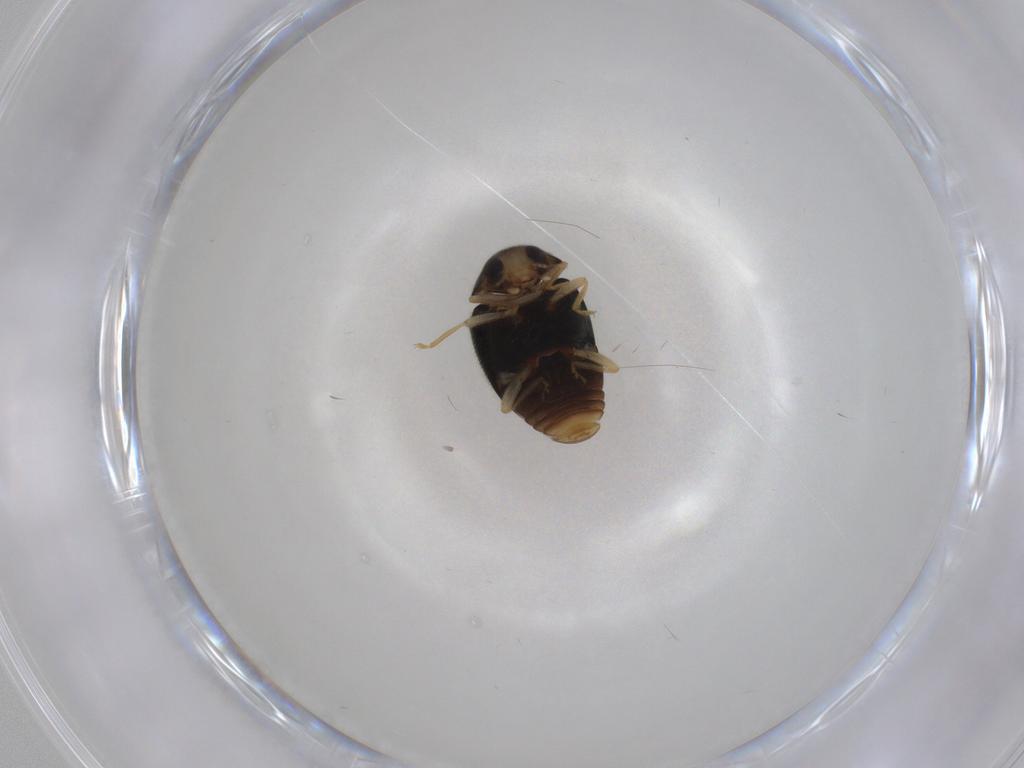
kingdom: Animalia
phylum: Arthropoda
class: Insecta
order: Coleoptera
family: Coccinellidae
